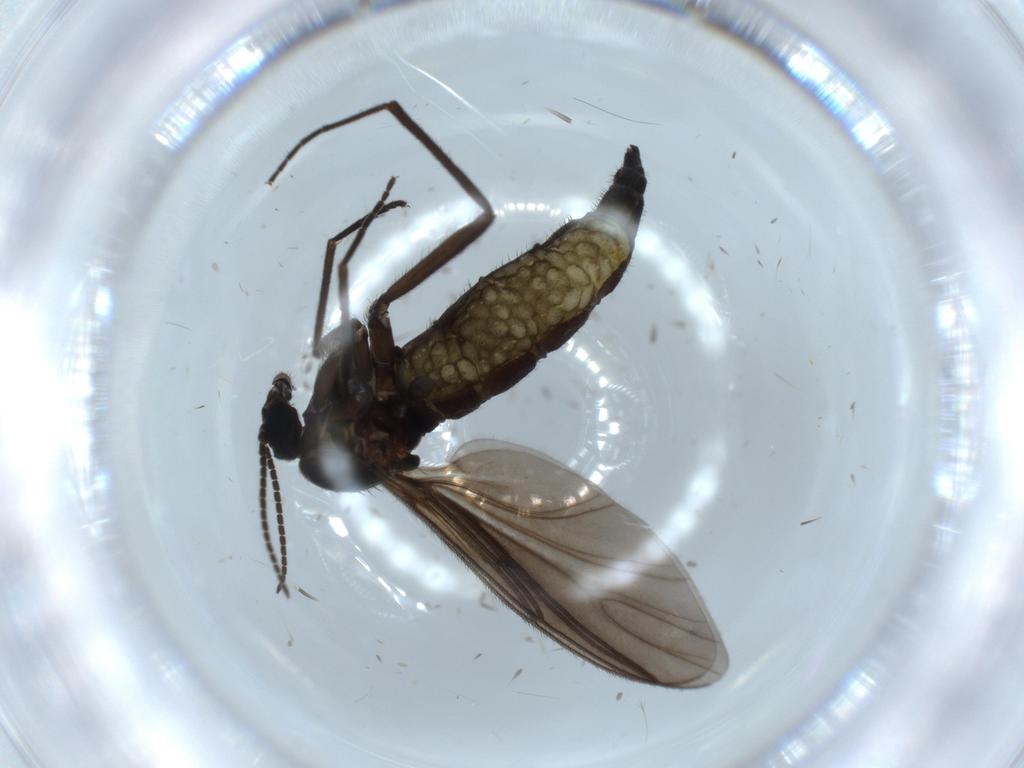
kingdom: Animalia
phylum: Arthropoda
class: Insecta
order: Diptera
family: Sciaridae
